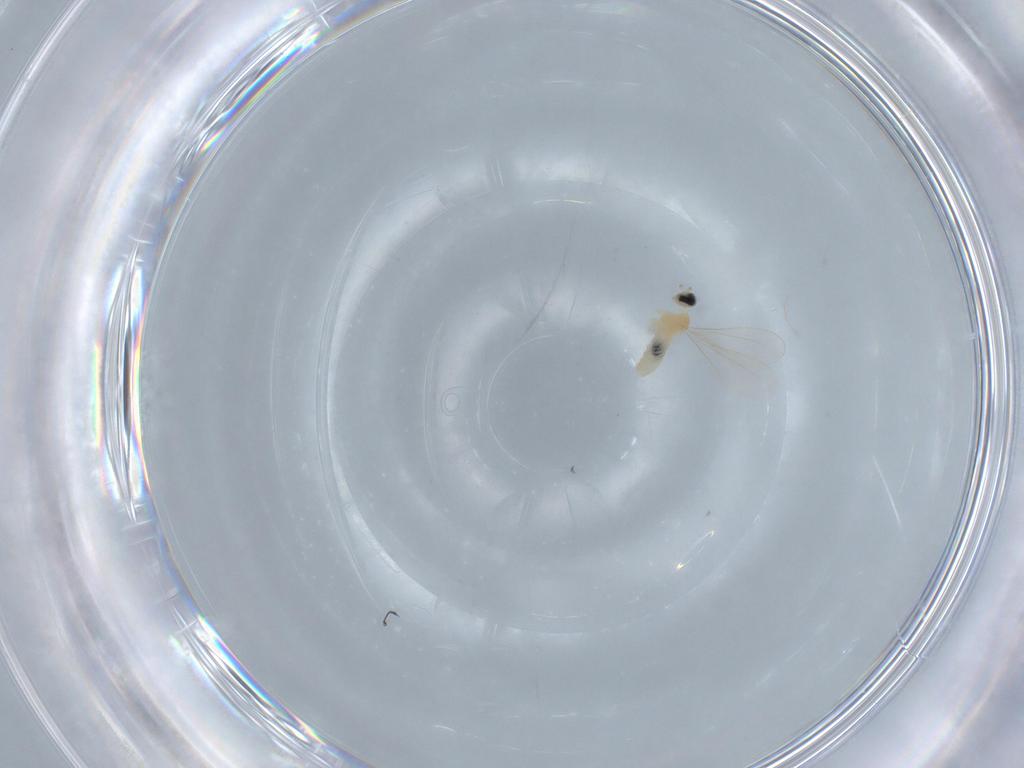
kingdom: Animalia
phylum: Arthropoda
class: Insecta
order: Diptera
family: Cecidomyiidae
